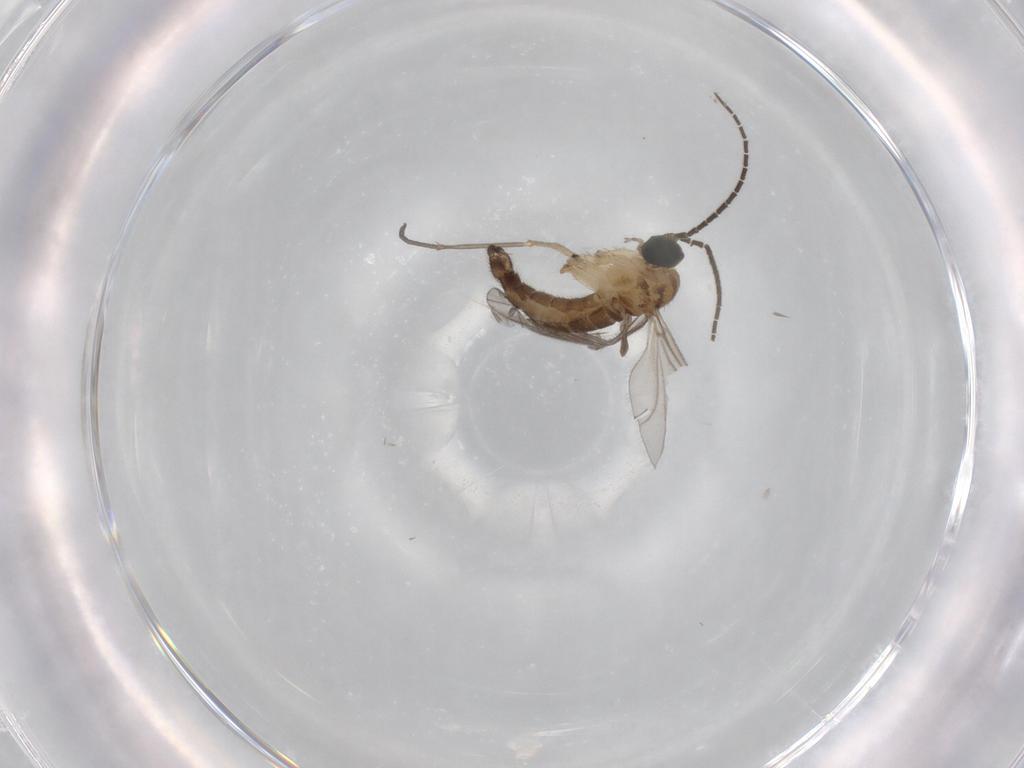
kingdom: Animalia
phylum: Arthropoda
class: Insecta
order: Diptera
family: Sciaridae
